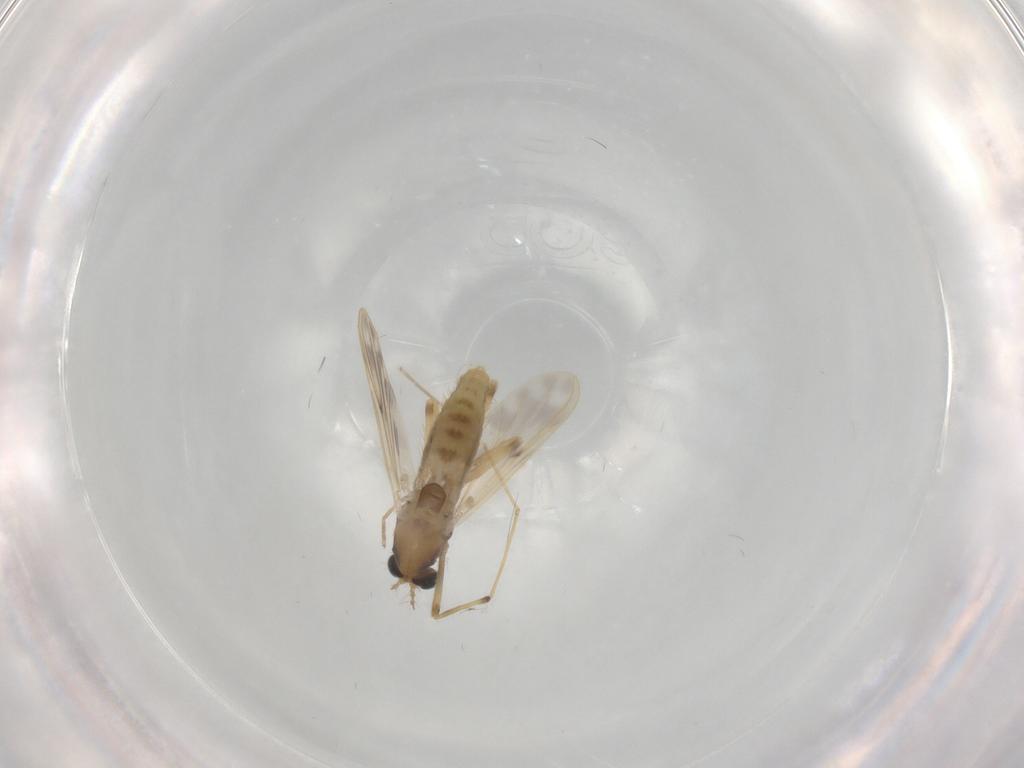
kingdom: Animalia
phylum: Arthropoda
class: Insecta
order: Diptera
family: Chironomidae
